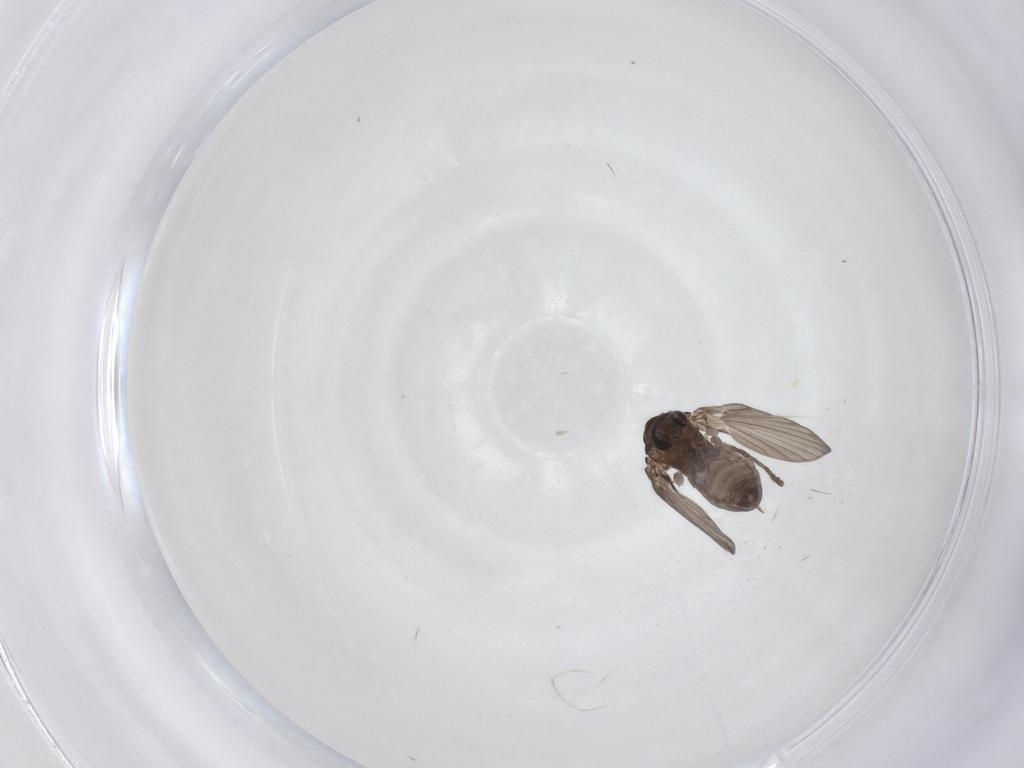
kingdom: Animalia
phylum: Arthropoda
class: Insecta
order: Diptera
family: Psychodidae
